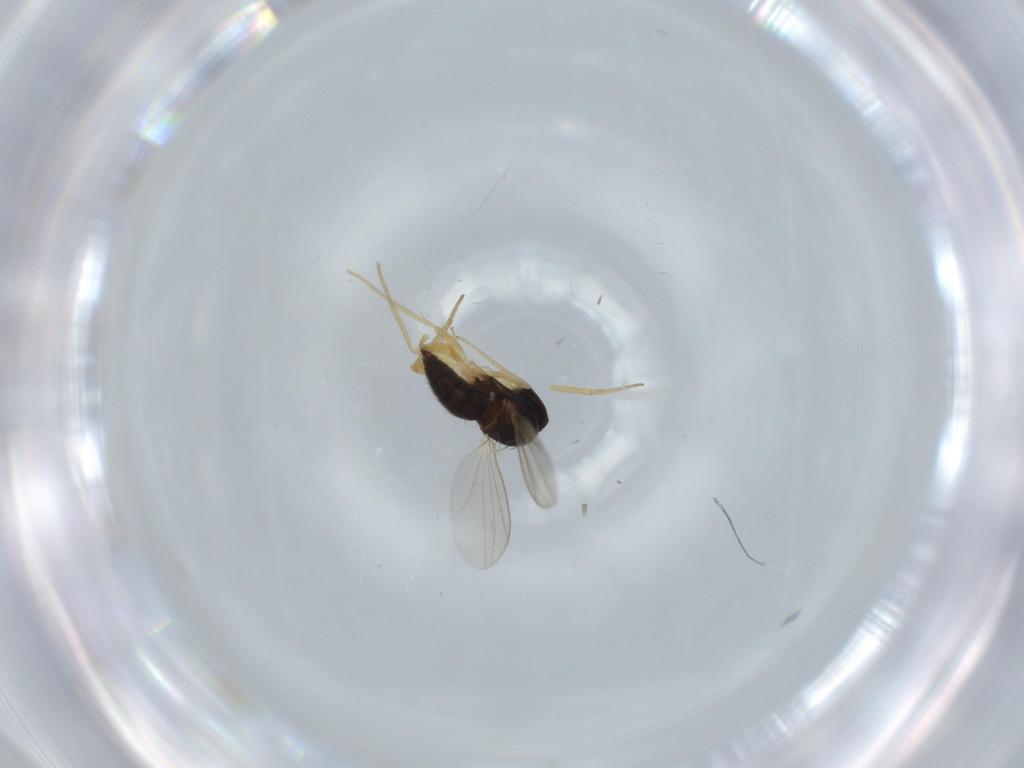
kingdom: Animalia
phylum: Arthropoda
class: Insecta
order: Diptera
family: Dolichopodidae
